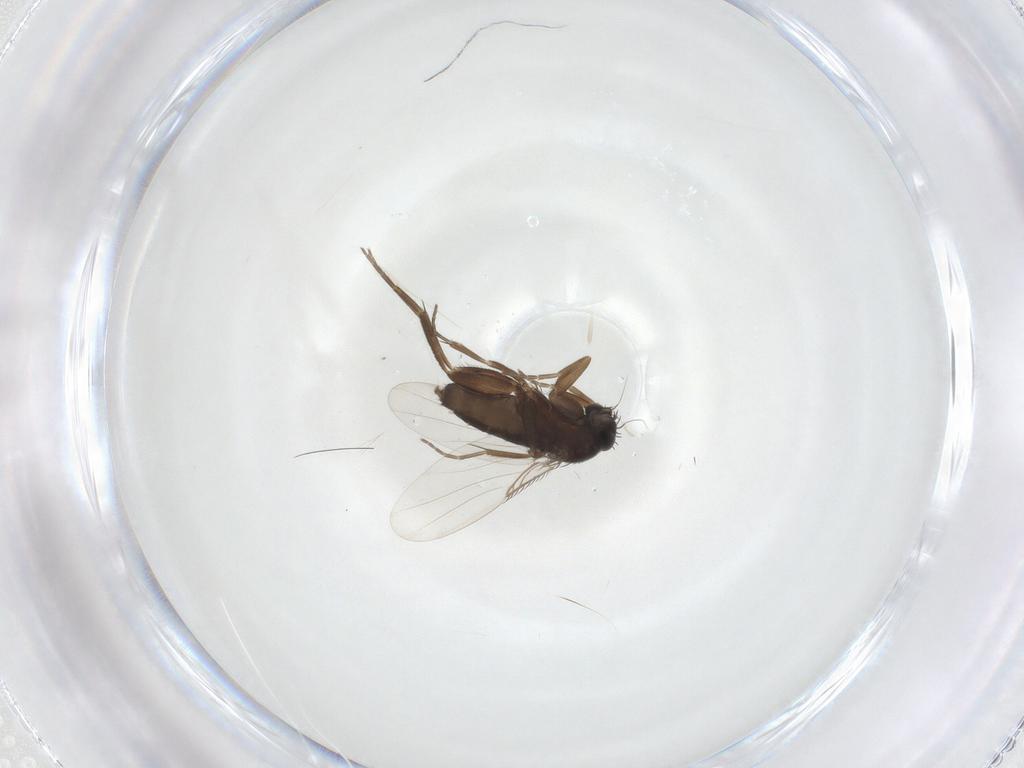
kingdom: Animalia
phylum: Arthropoda
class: Insecta
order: Diptera
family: Chloropidae
